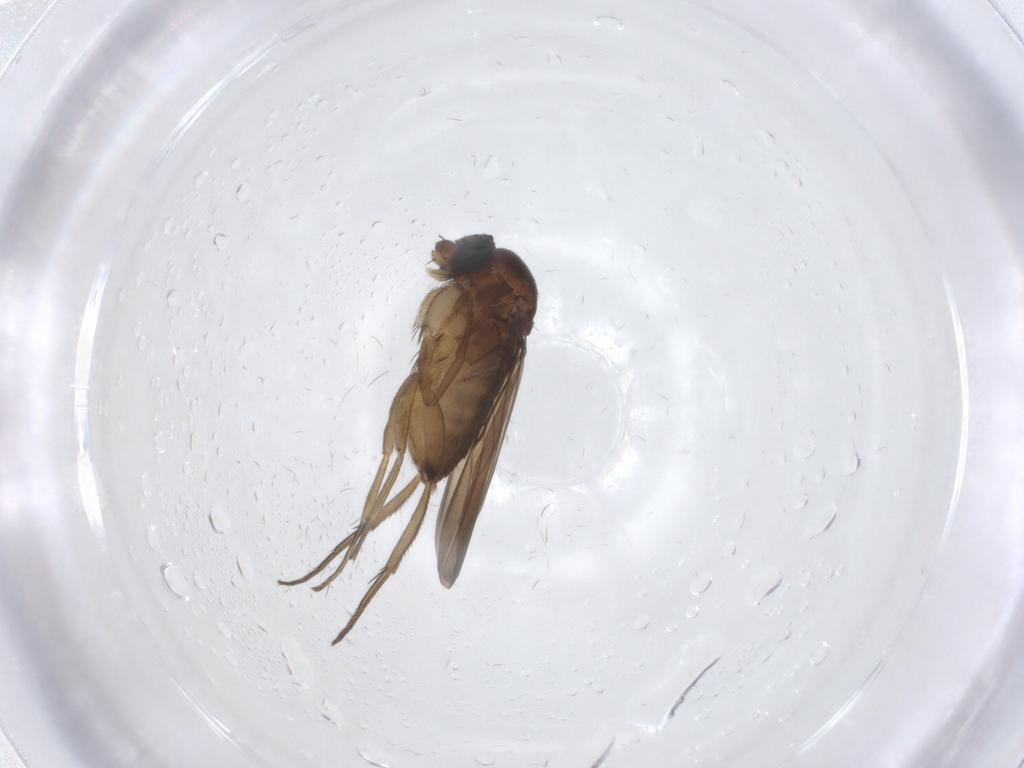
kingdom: Animalia
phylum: Arthropoda
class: Insecta
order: Diptera
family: Phoridae
